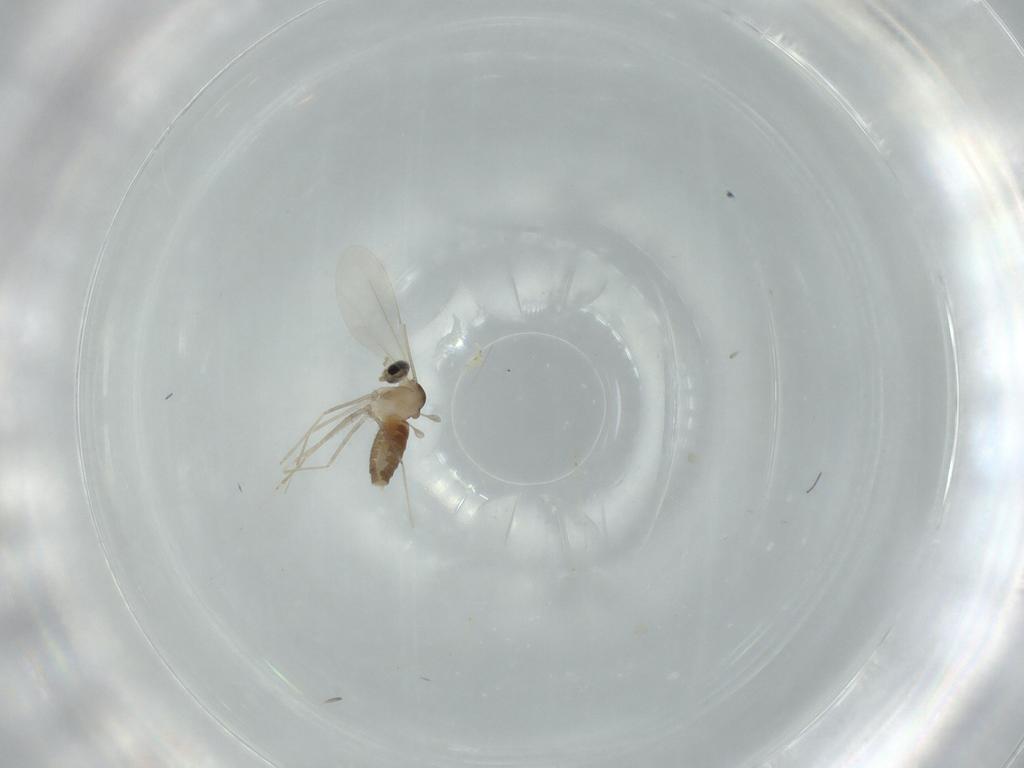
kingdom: Animalia
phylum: Arthropoda
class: Insecta
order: Diptera
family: Cecidomyiidae
